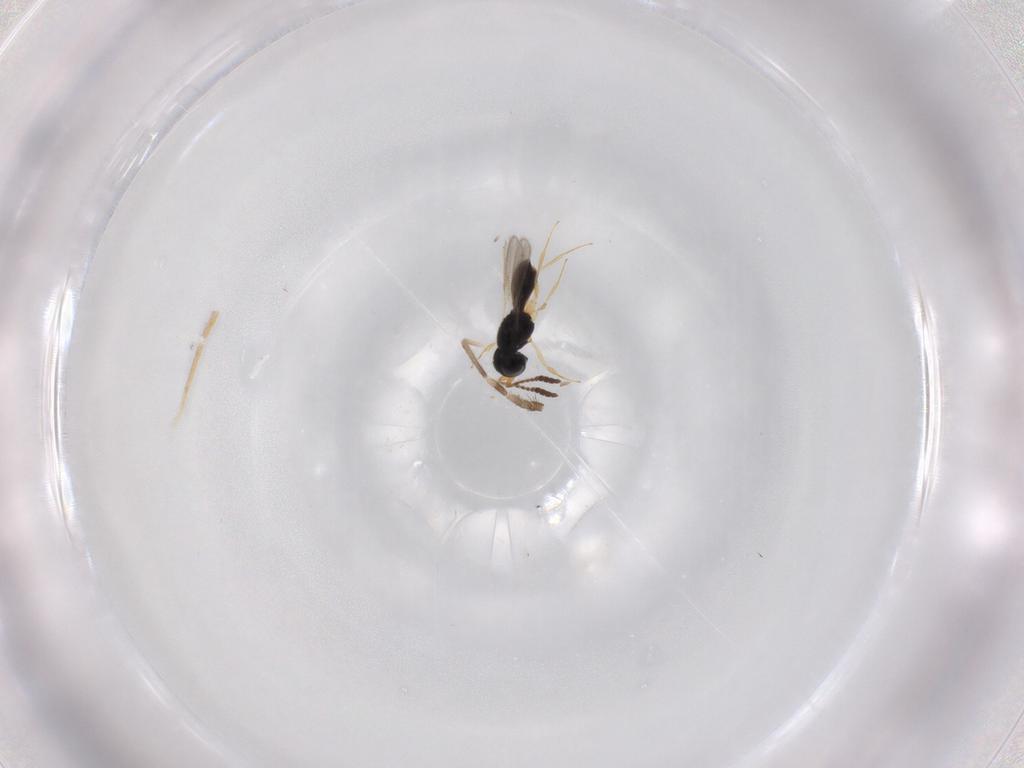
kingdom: Animalia
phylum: Arthropoda
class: Insecta
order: Hymenoptera
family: Scelionidae
